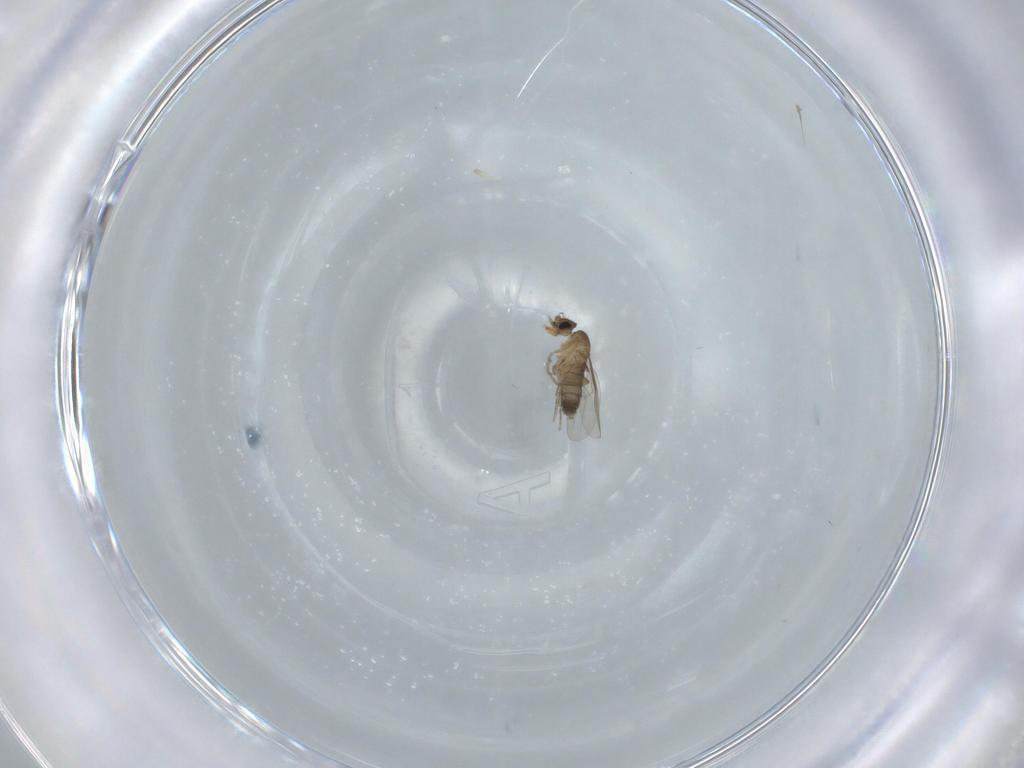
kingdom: Animalia
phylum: Arthropoda
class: Insecta
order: Diptera
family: Phoridae
